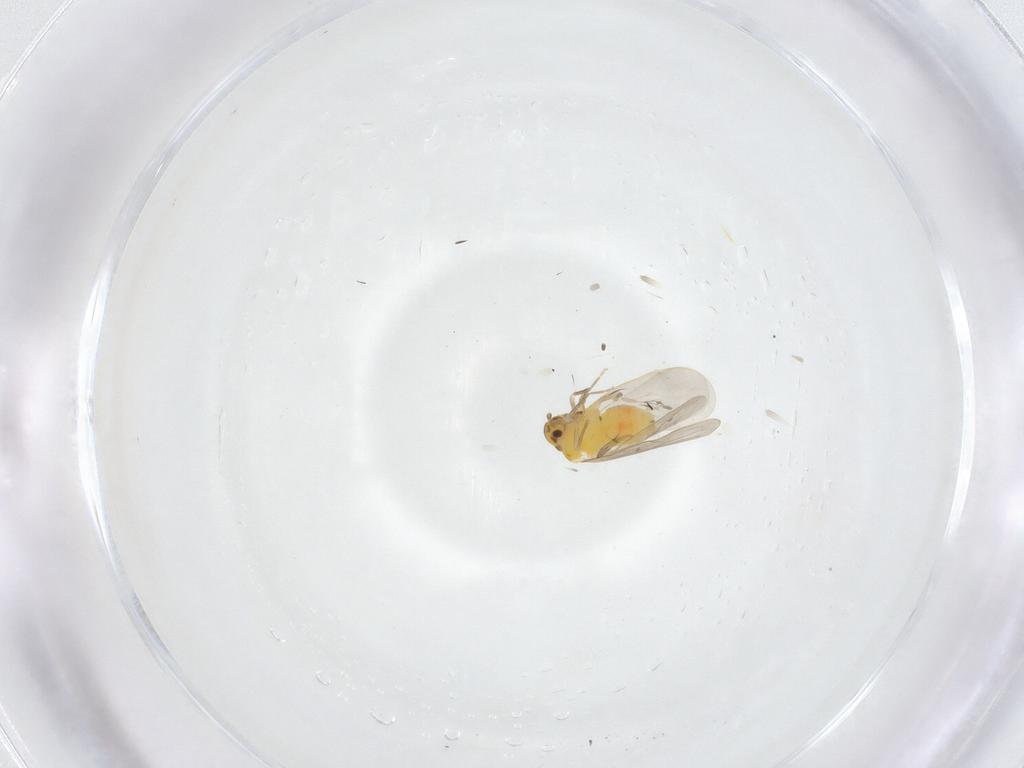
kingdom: Animalia
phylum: Arthropoda
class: Insecta
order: Hemiptera
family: Aleyrodidae
